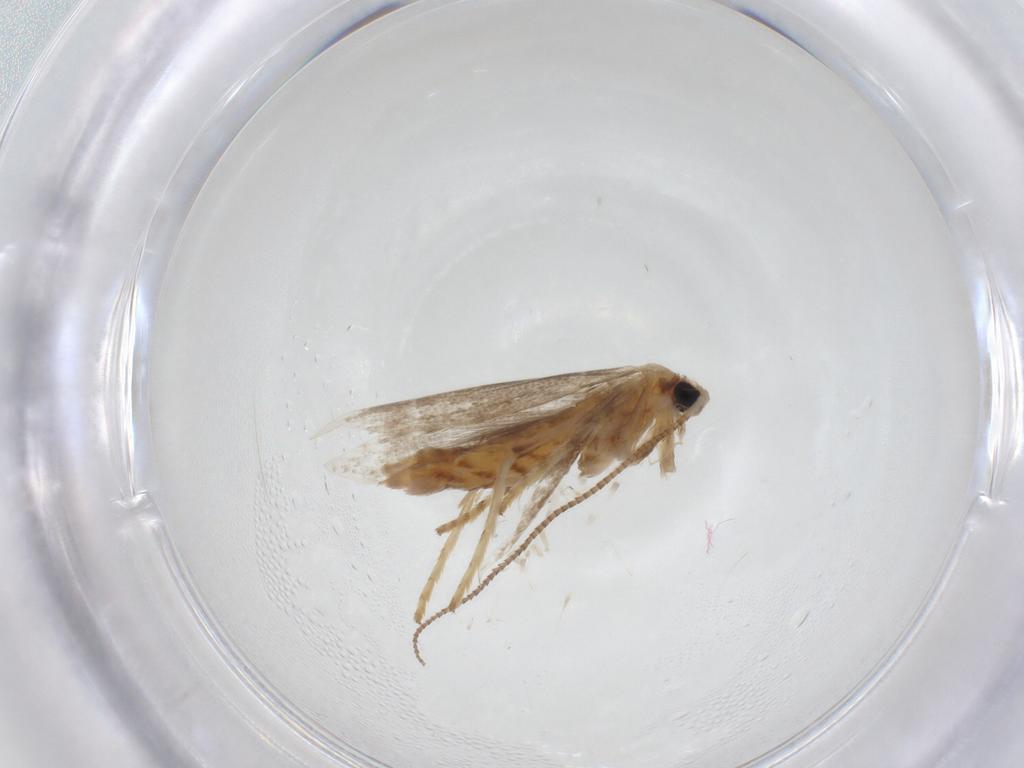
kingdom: Animalia
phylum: Arthropoda
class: Insecta
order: Lepidoptera
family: Gracillariidae
